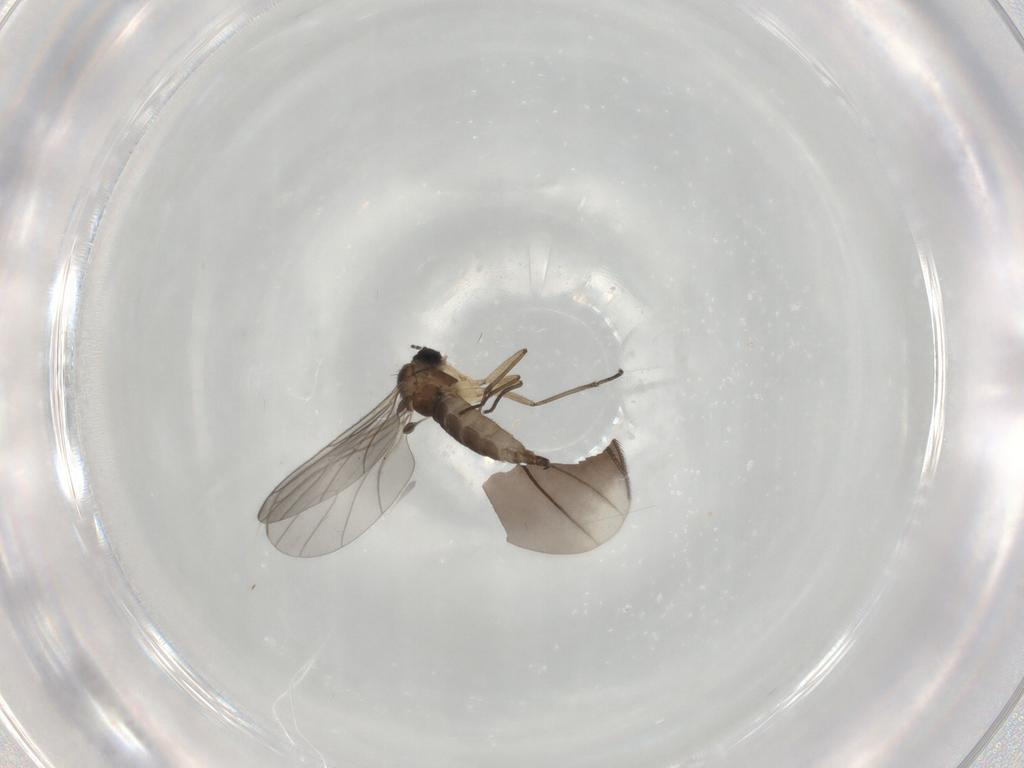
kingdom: Animalia
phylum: Arthropoda
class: Insecta
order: Diptera
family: Sciaridae
